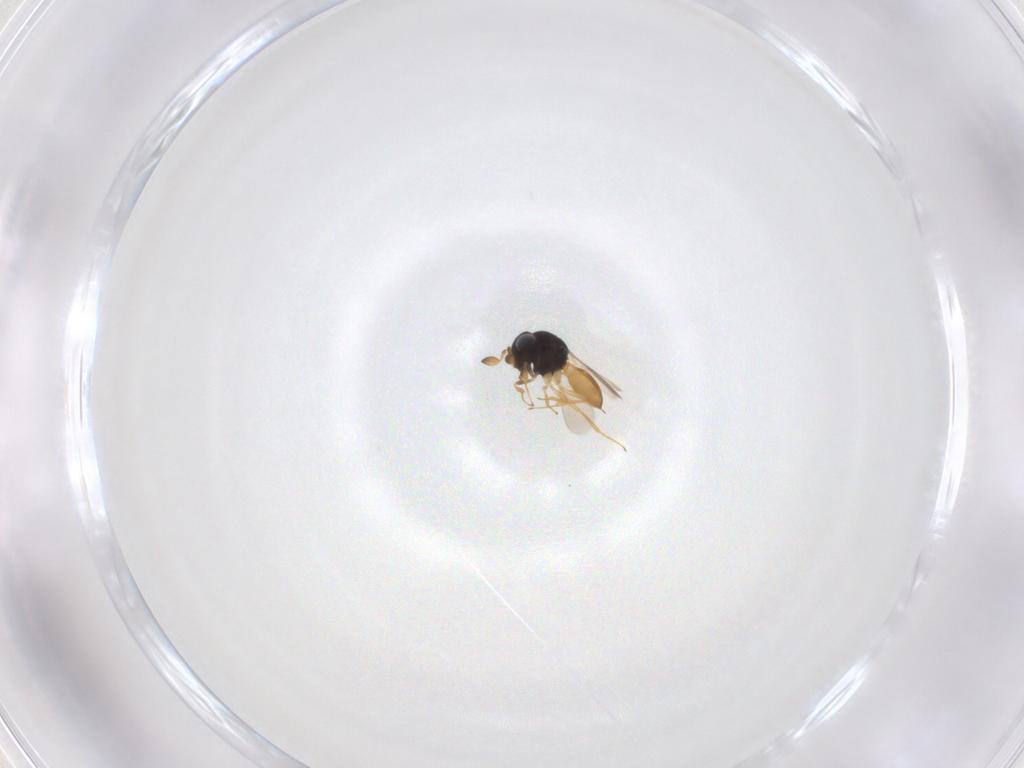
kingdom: Animalia
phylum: Arthropoda
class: Insecta
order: Hymenoptera
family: Scelionidae
